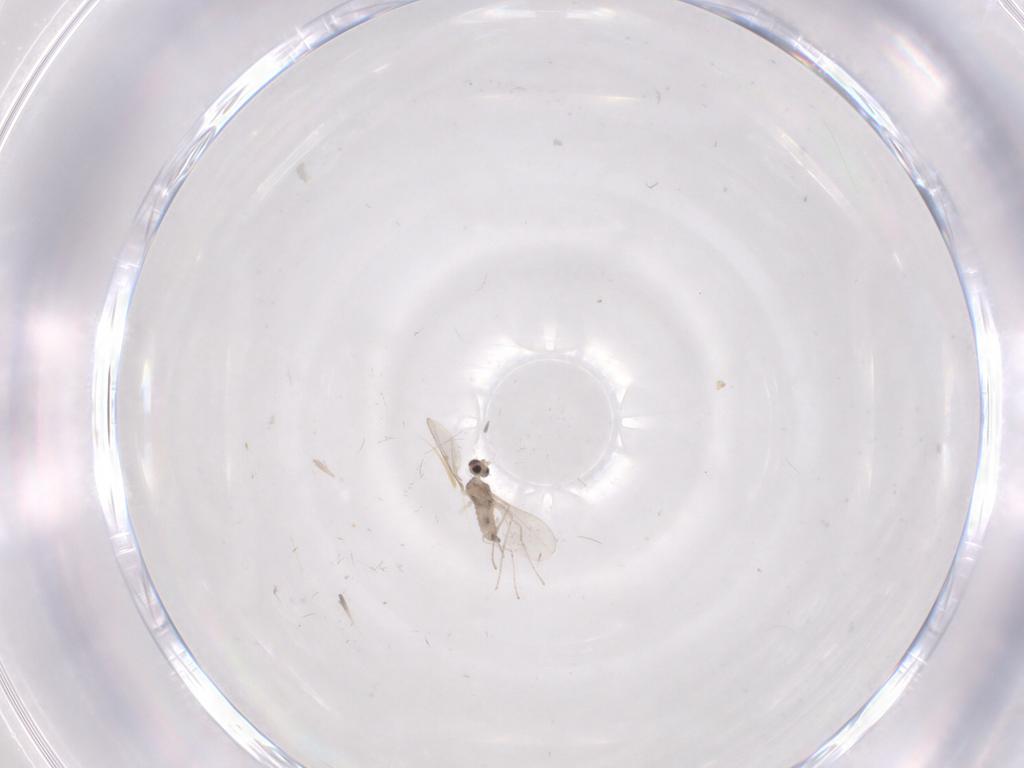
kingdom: Animalia
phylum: Arthropoda
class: Insecta
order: Diptera
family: Cecidomyiidae
